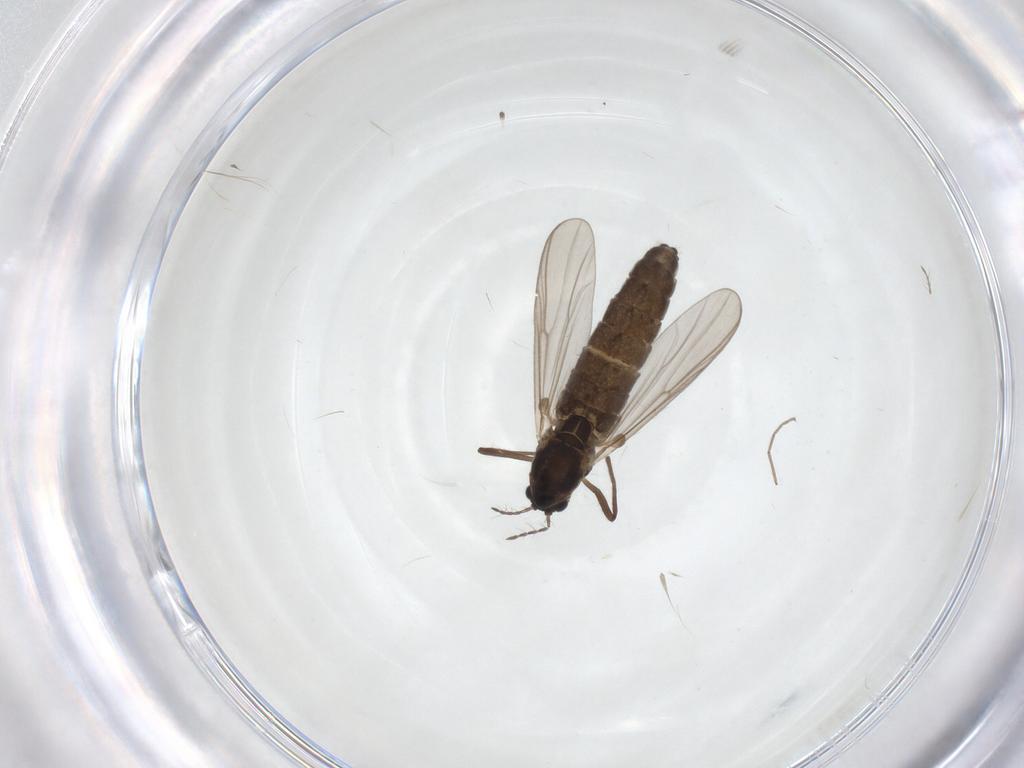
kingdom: Animalia
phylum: Arthropoda
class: Insecta
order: Diptera
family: Chironomidae
